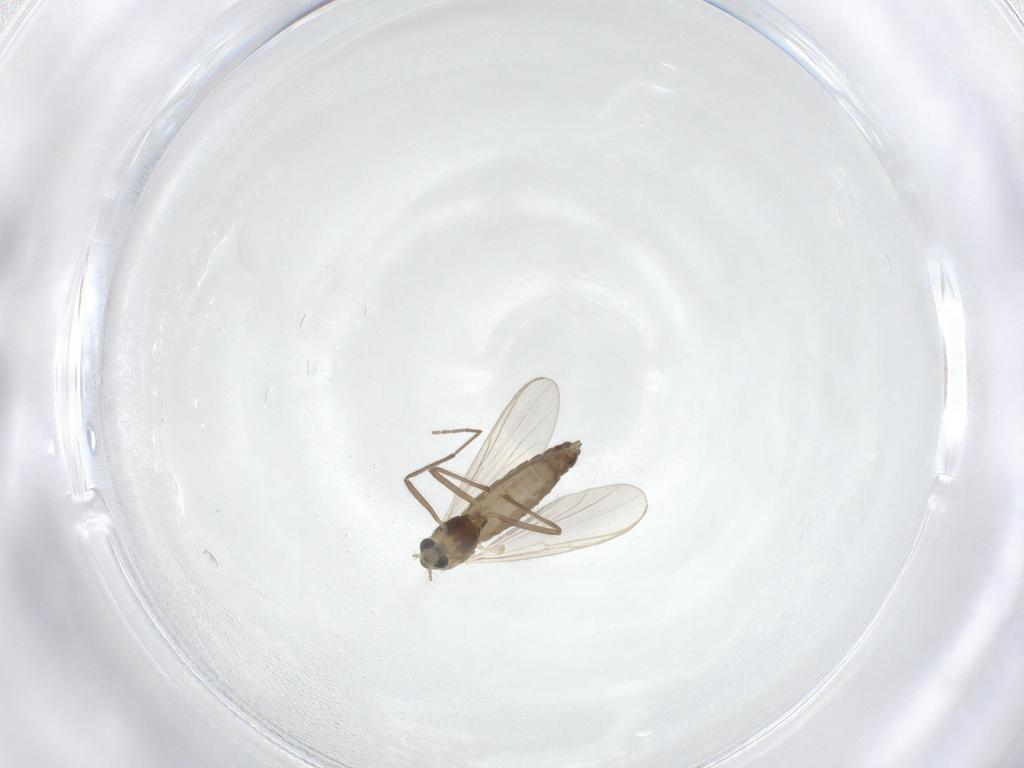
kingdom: Animalia
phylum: Arthropoda
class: Insecta
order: Diptera
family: Chironomidae
